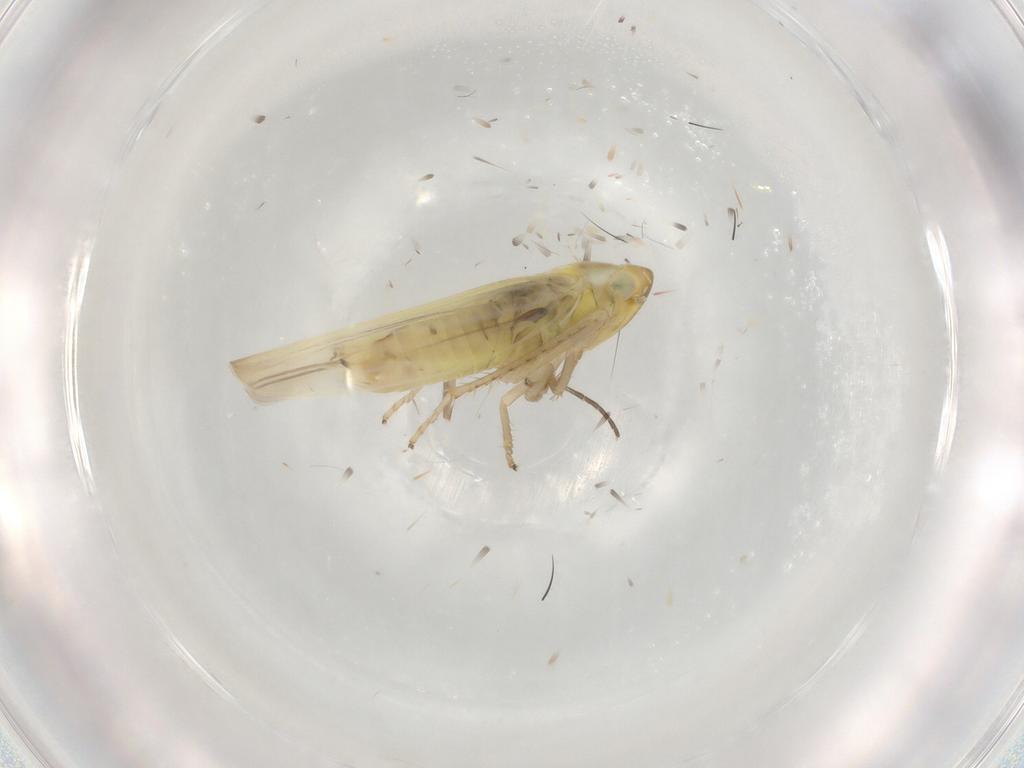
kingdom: Animalia
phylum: Arthropoda
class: Insecta
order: Hemiptera
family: Cicadellidae
